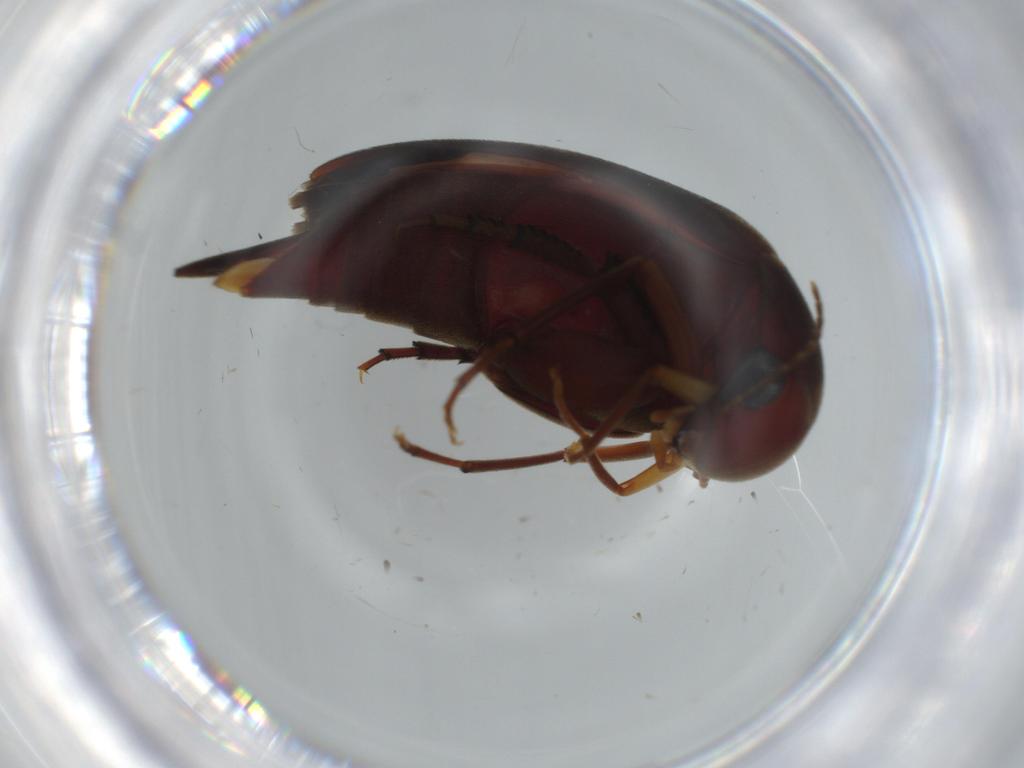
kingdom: Animalia
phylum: Arthropoda
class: Insecta
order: Coleoptera
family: Mordellidae
